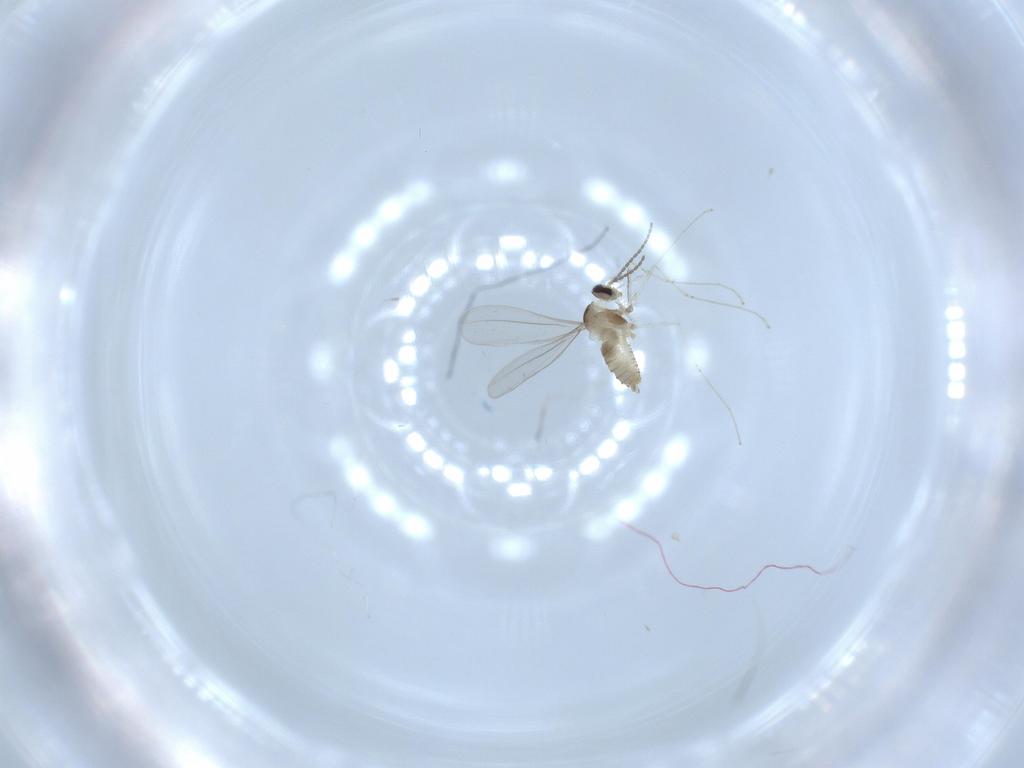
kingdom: Animalia
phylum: Arthropoda
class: Insecta
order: Diptera
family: Cecidomyiidae
